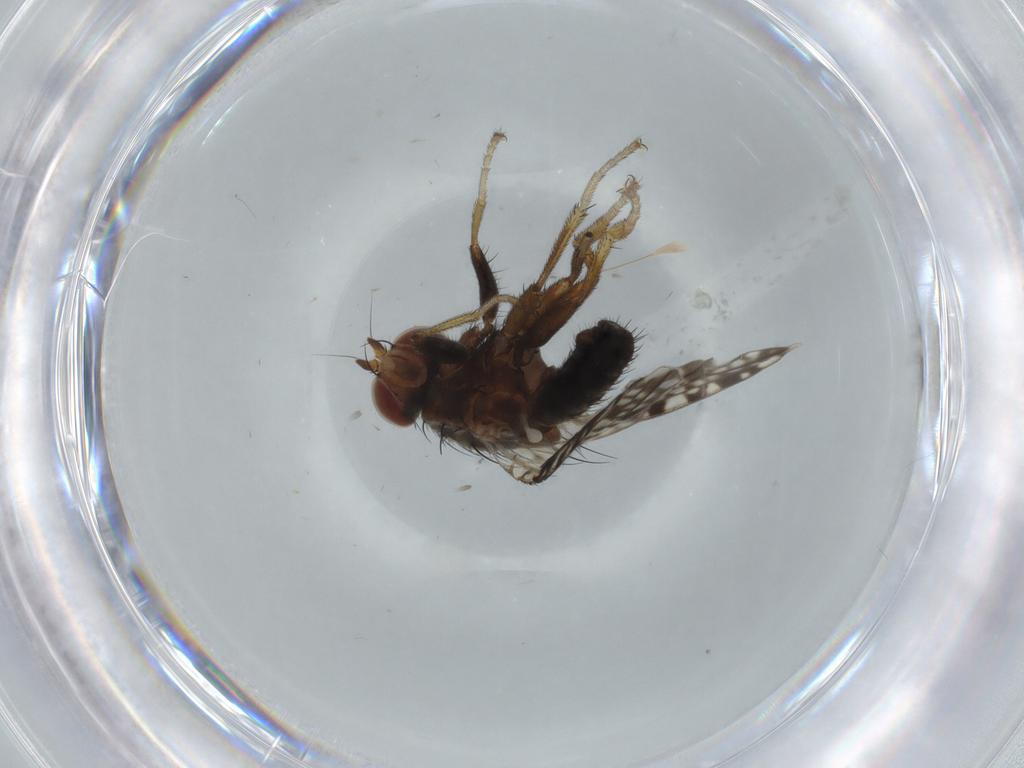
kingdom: Animalia
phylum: Arthropoda
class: Insecta
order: Diptera
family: Tephritidae
